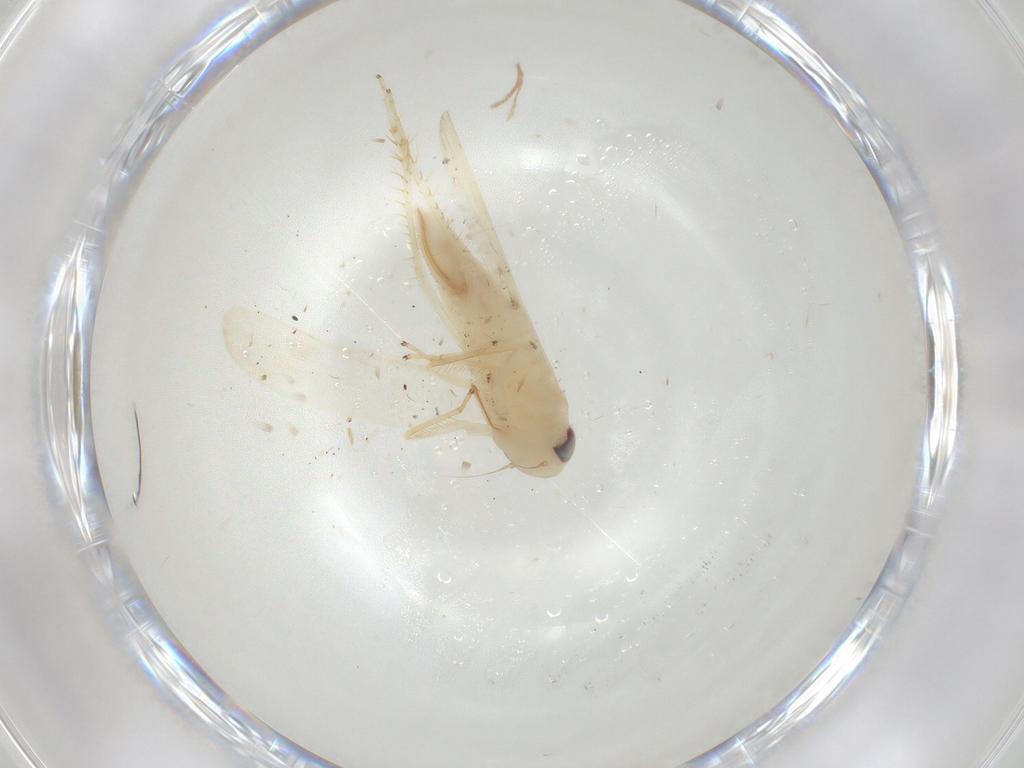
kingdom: Animalia
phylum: Arthropoda
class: Insecta
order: Hemiptera
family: Cicadellidae
